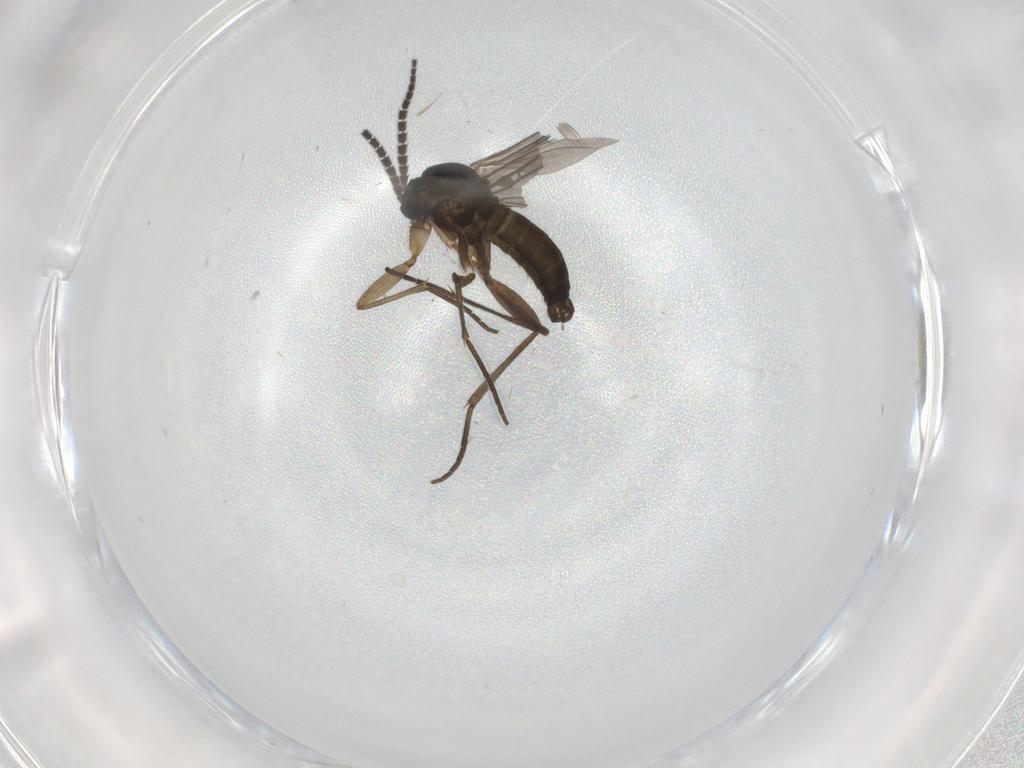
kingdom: Animalia
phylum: Arthropoda
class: Insecta
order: Diptera
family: Sciaridae
